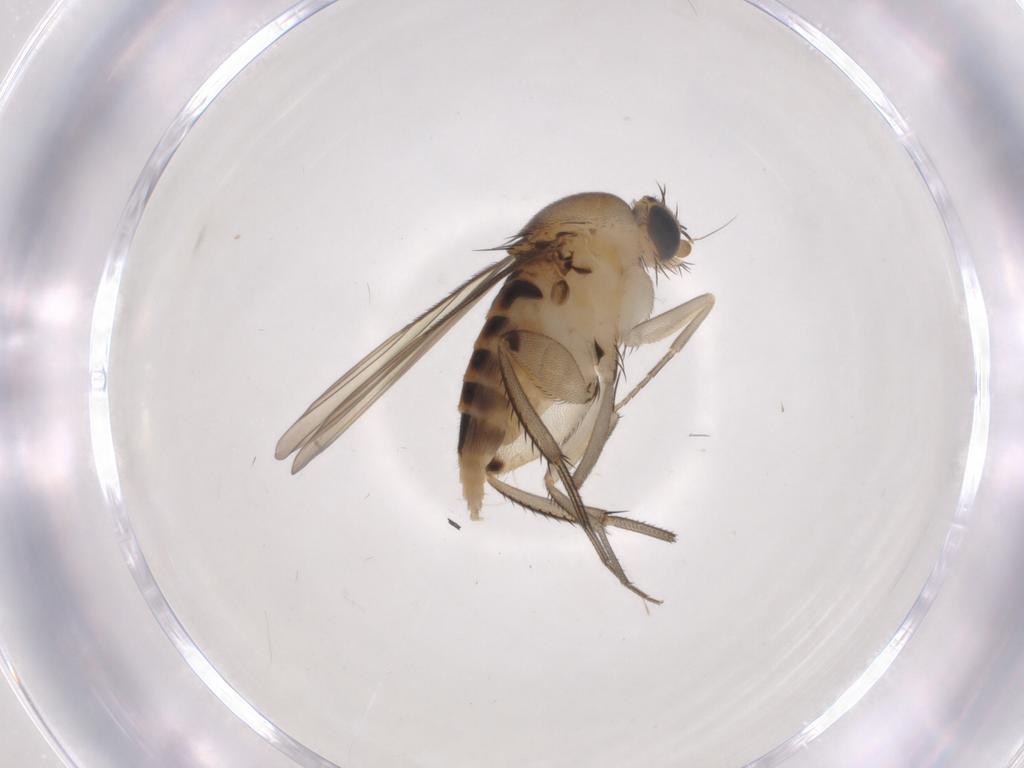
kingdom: Animalia
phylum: Arthropoda
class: Insecta
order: Diptera
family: Phoridae
